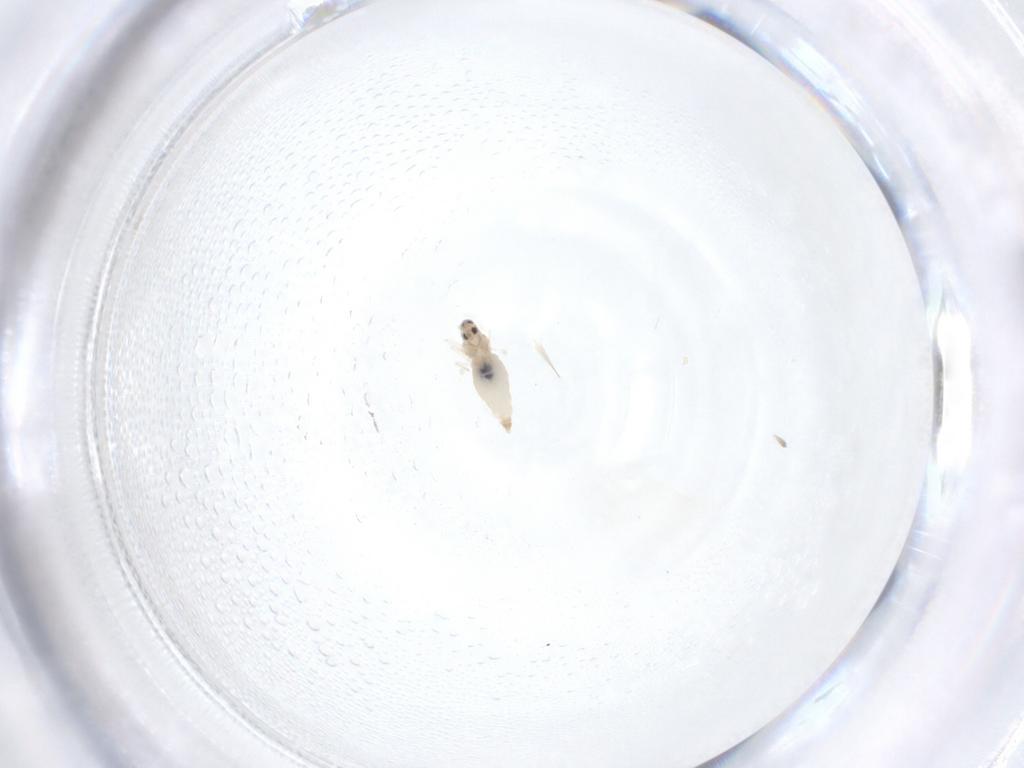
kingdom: Animalia
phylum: Arthropoda
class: Insecta
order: Diptera
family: Cecidomyiidae
